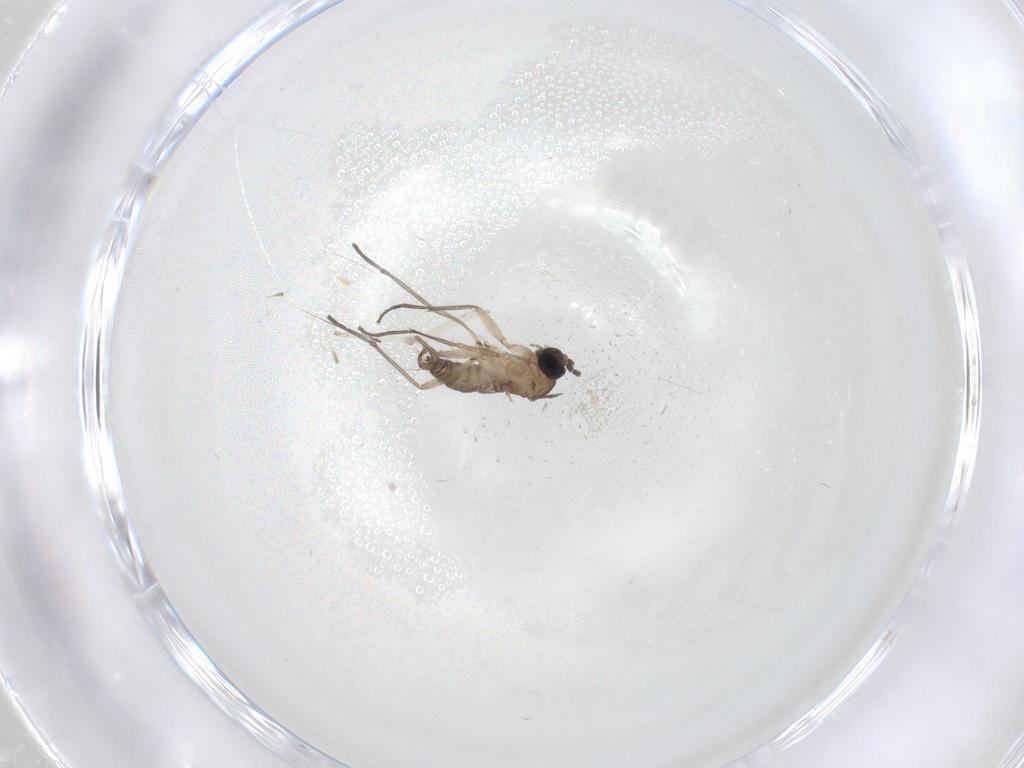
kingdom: Animalia
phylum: Arthropoda
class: Insecta
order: Diptera
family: Sciaridae
